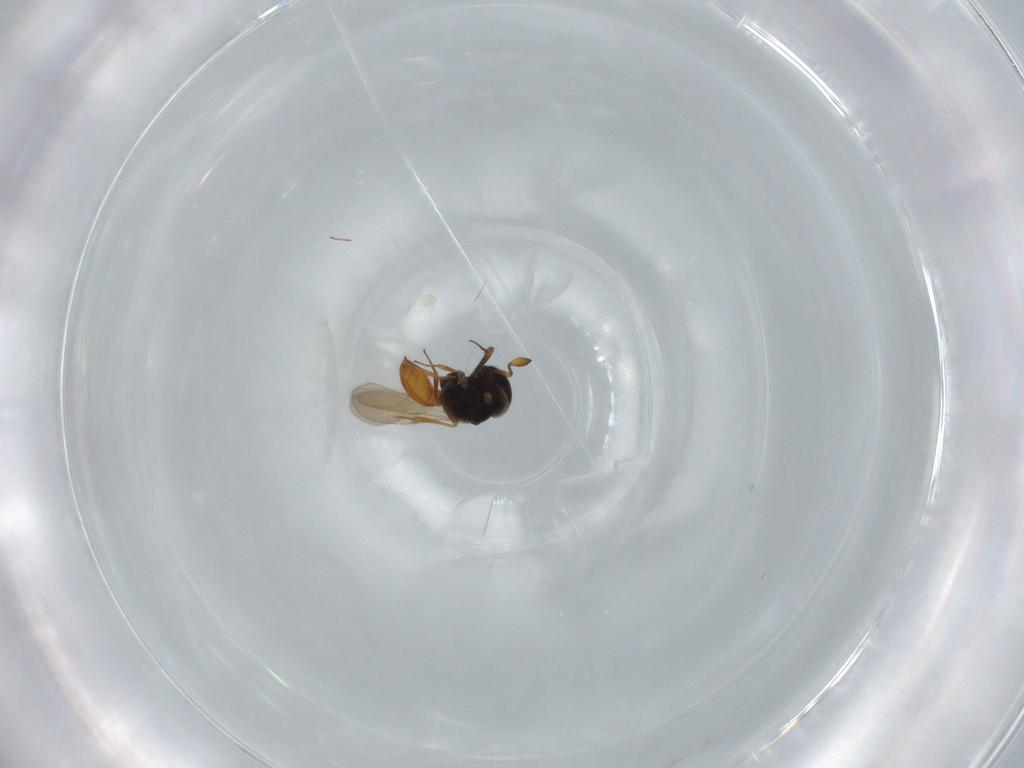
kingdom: Animalia
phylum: Arthropoda
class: Insecta
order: Hymenoptera
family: Scelionidae
